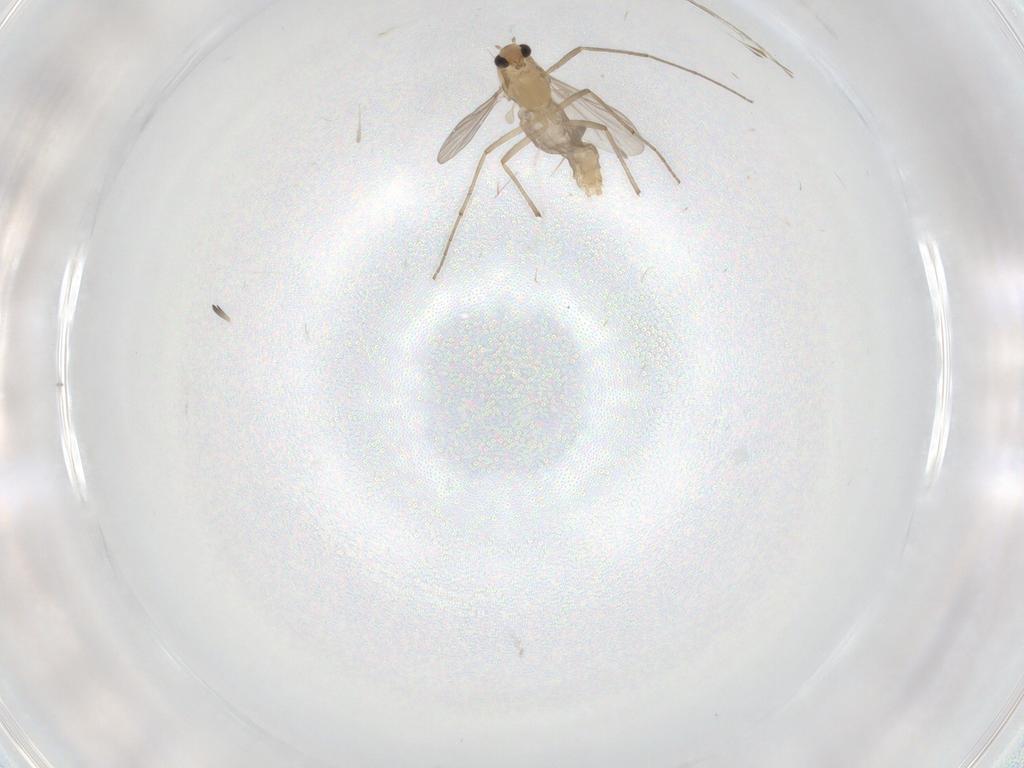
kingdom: Animalia
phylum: Arthropoda
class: Insecta
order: Diptera
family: Chironomidae
